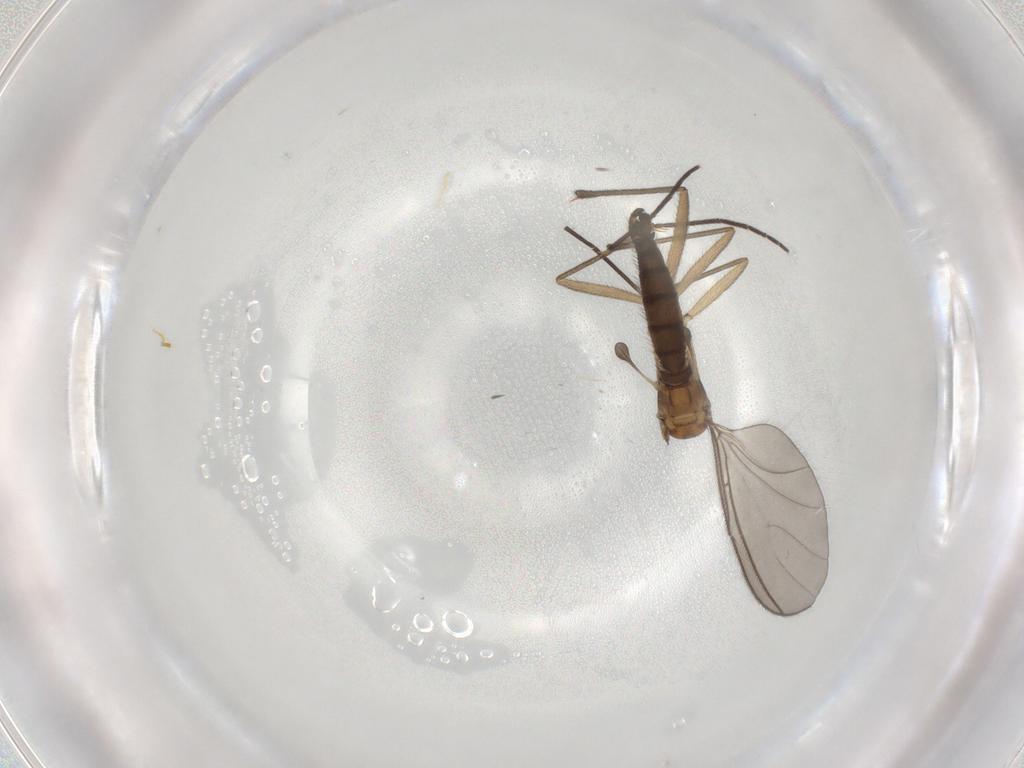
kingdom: Animalia
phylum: Arthropoda
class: Insecta
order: Diptera
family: Sciaridae
